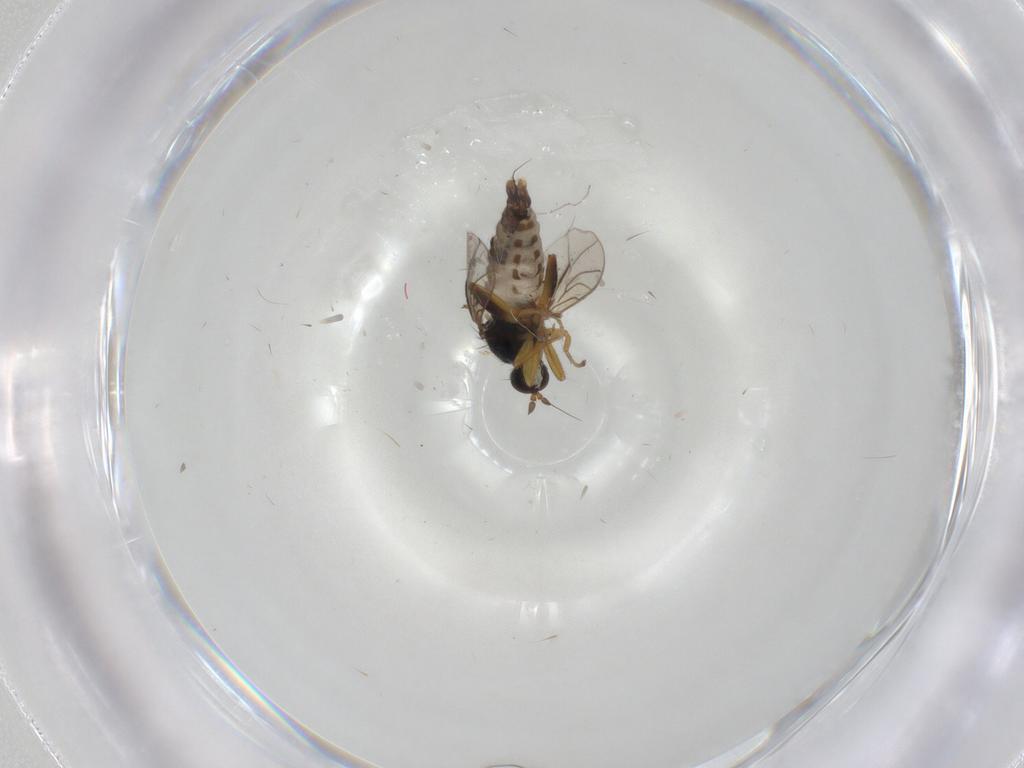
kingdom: Animalia
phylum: Arthropoda
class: Insecta
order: Diptera
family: Hybotidae
